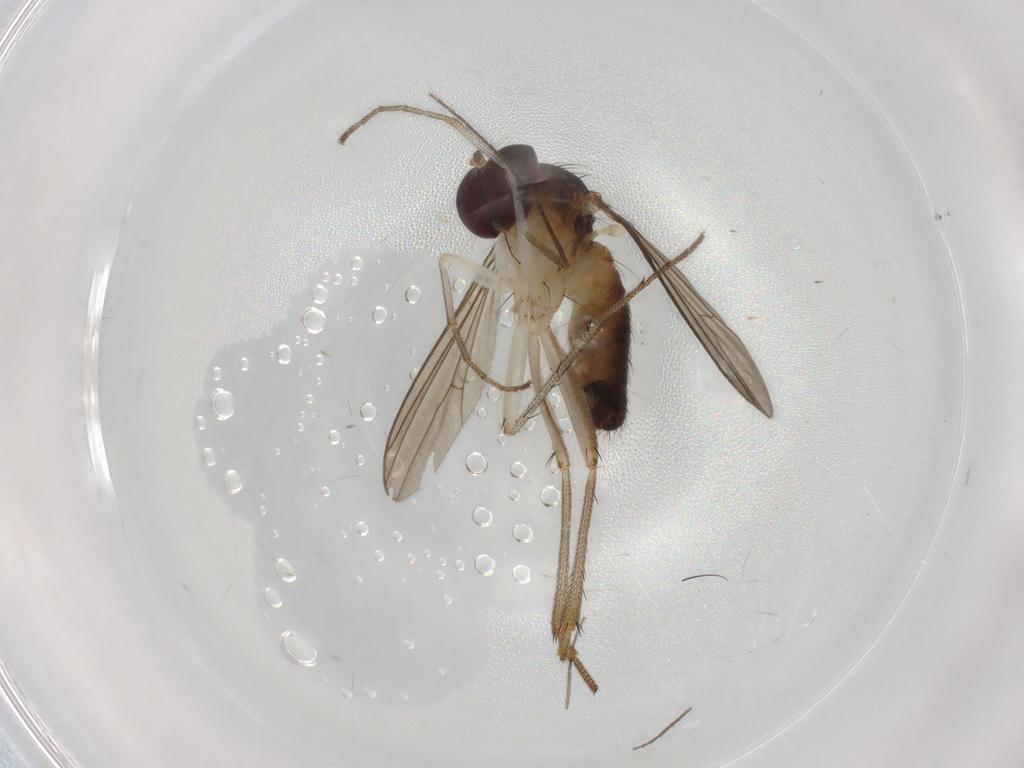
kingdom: Animalia
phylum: Arthropoda
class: Insecta
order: Diptera
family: Dolichopodidae
